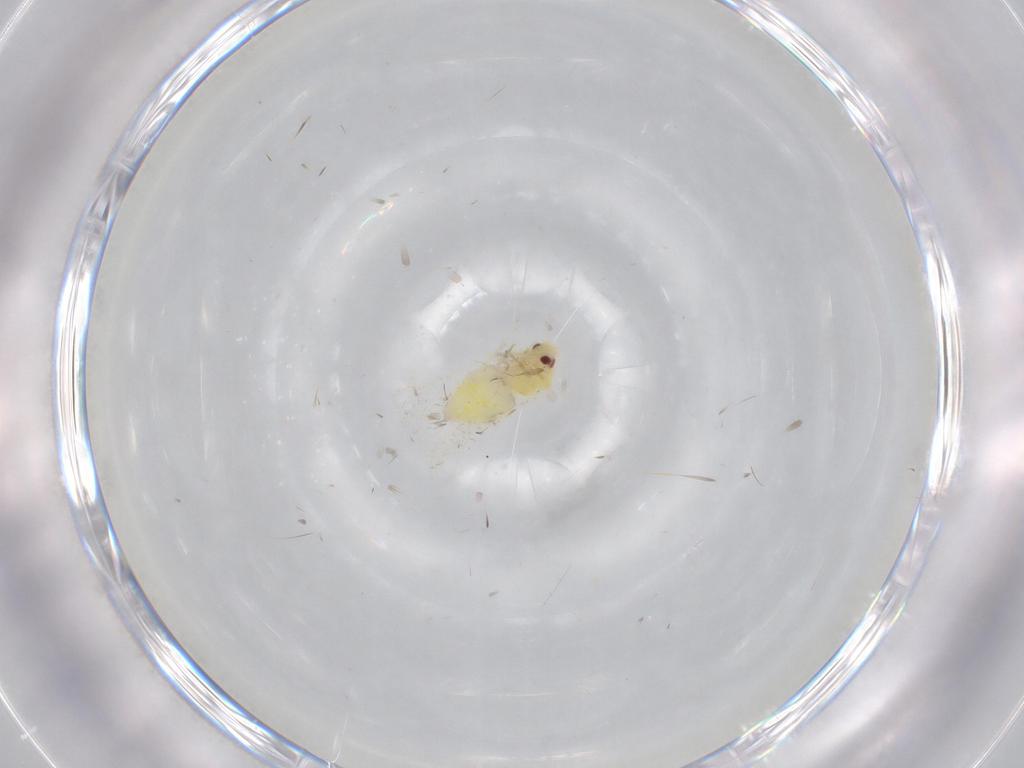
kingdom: Animalia
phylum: Arthropoda
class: Insecta
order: Hemiptera
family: Aleyrodidae
